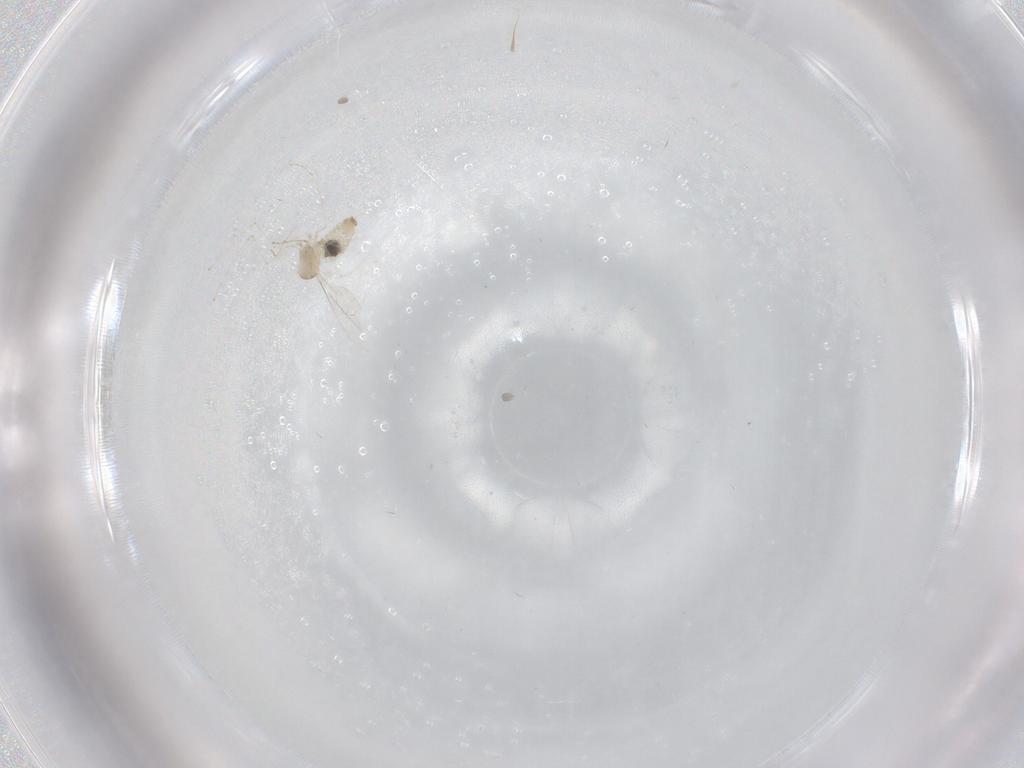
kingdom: Animalia
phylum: Arthropoda
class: Insecta
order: Diptera
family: Cecidomyiidae
